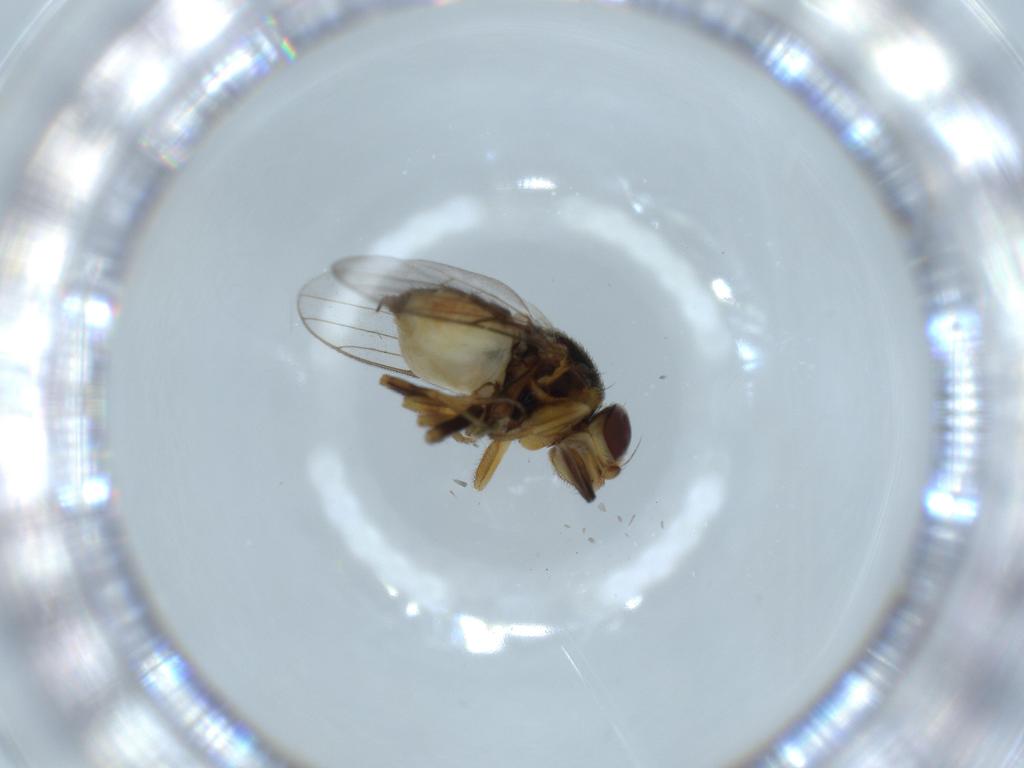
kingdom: Animalia
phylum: Arthropoda
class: Insecta
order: Diptera
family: Chloropidae
